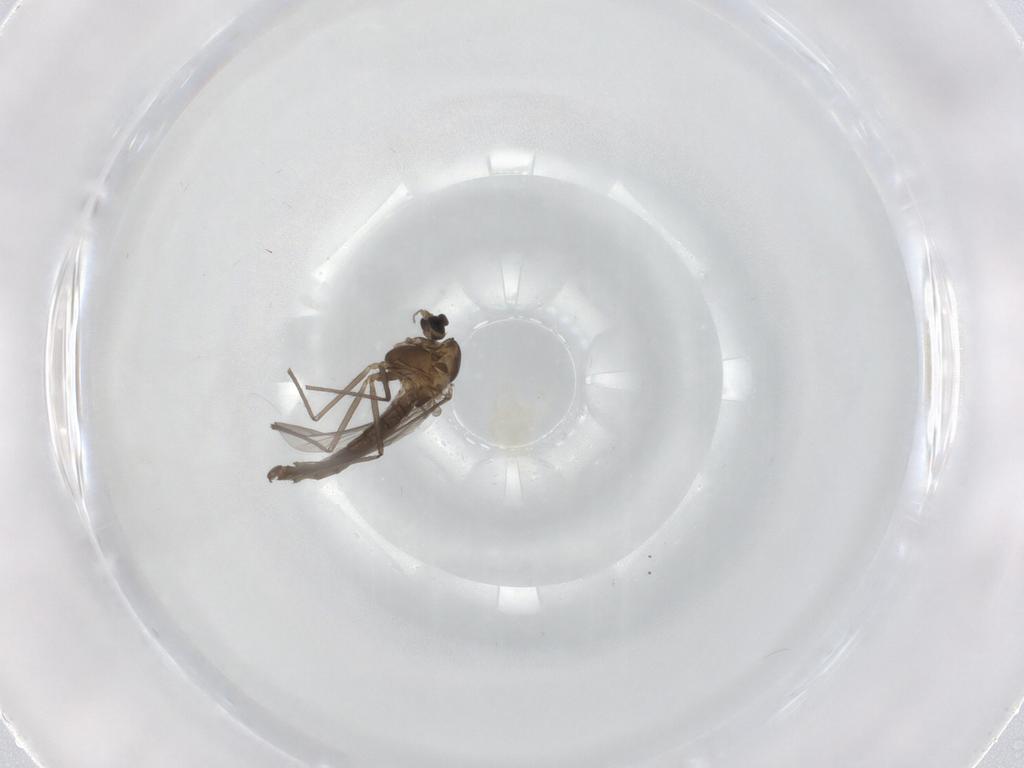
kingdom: Animalia
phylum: Arthropoda
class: Insecta
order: Diptera
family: Chironomidae
